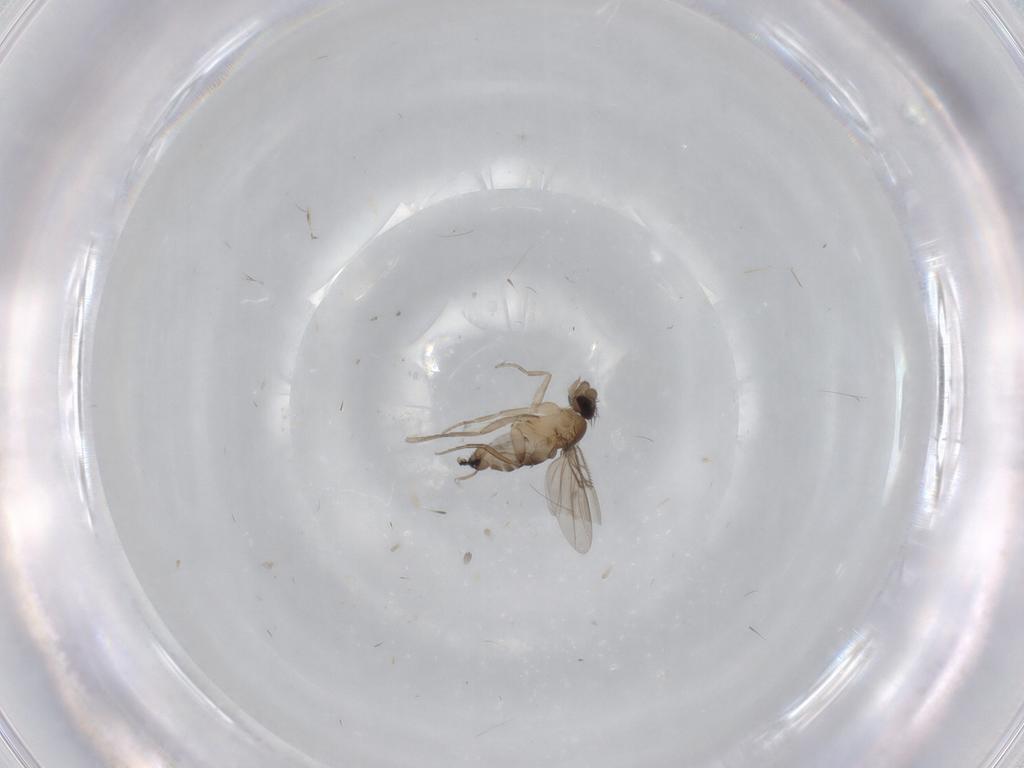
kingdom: Animalia
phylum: Arthropoda
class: Insecta
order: Diptera
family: Phoridae
